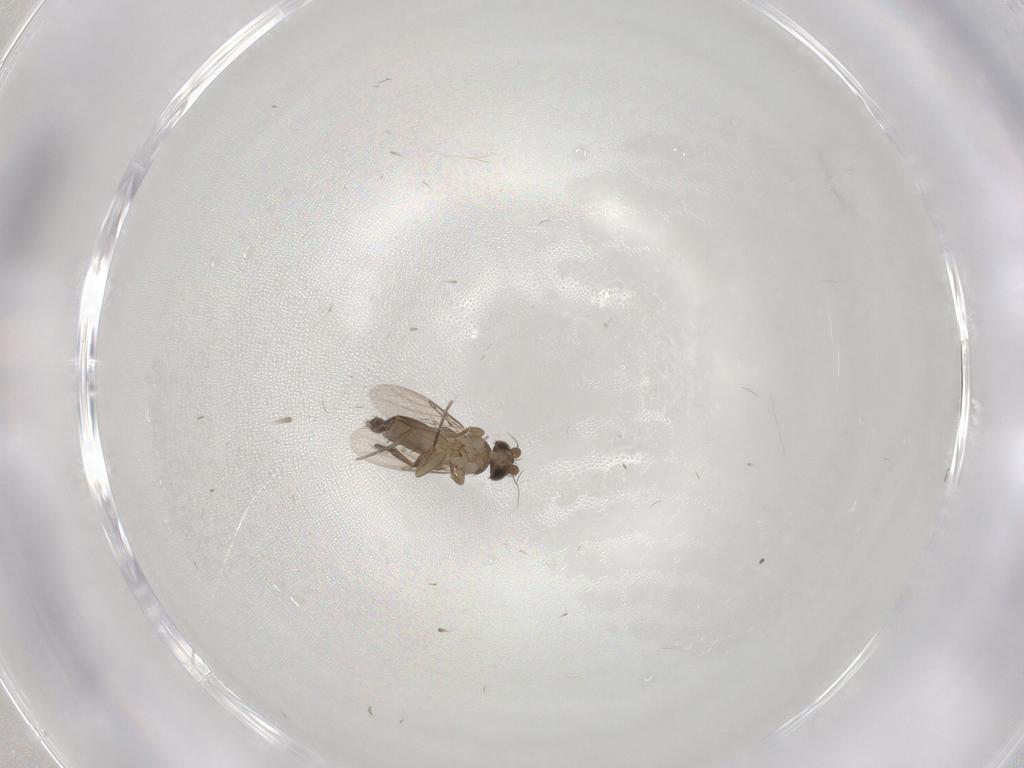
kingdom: Animalia
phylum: Arthropoda
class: Insecta
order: Diptera
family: Phoridae
